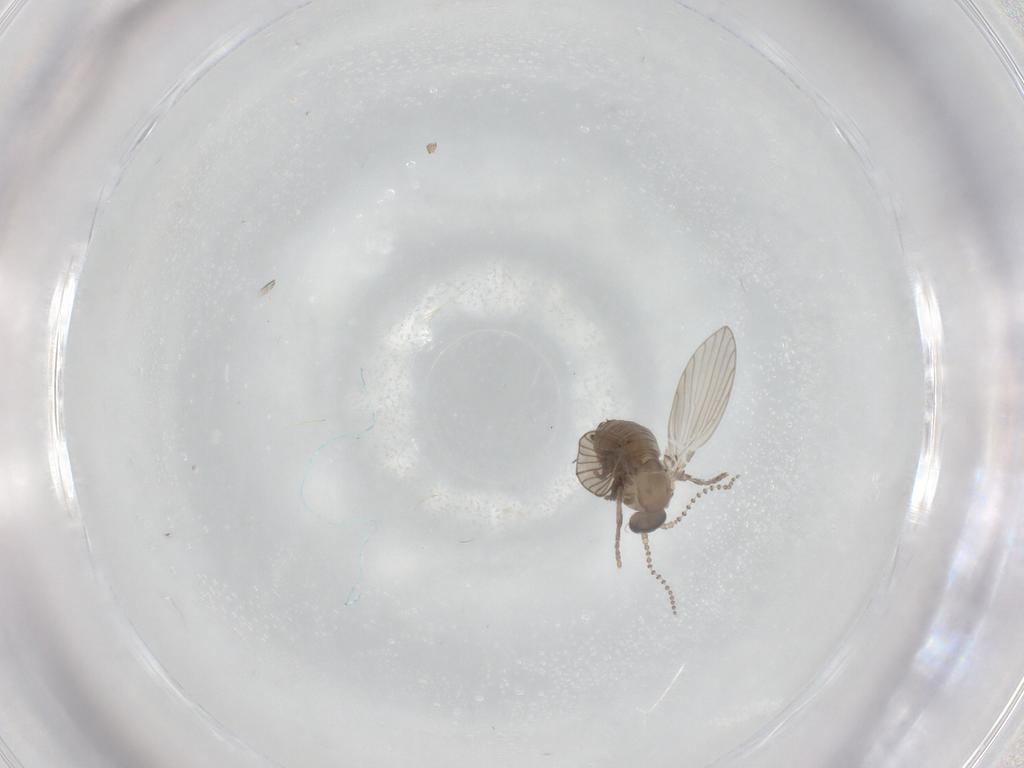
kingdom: Animalia
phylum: Arthropoda
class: Insecta
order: Diptera
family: Psychodidae
